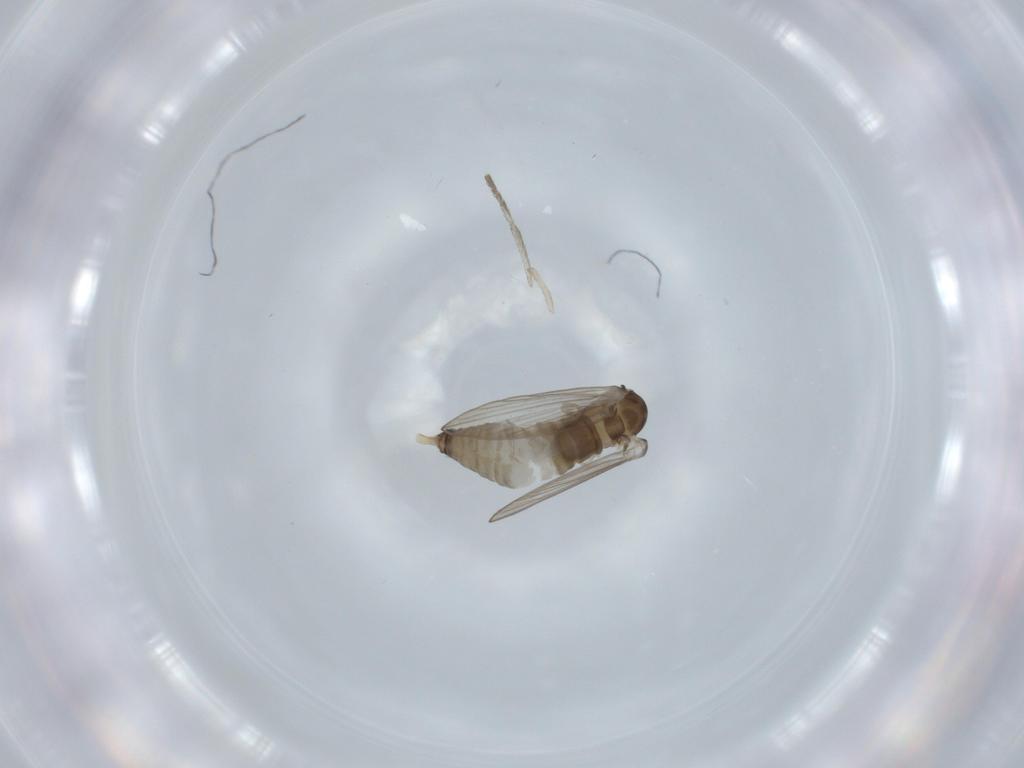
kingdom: Animalia
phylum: Arthropoda
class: Insecta
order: Diptera
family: Psychodidae
